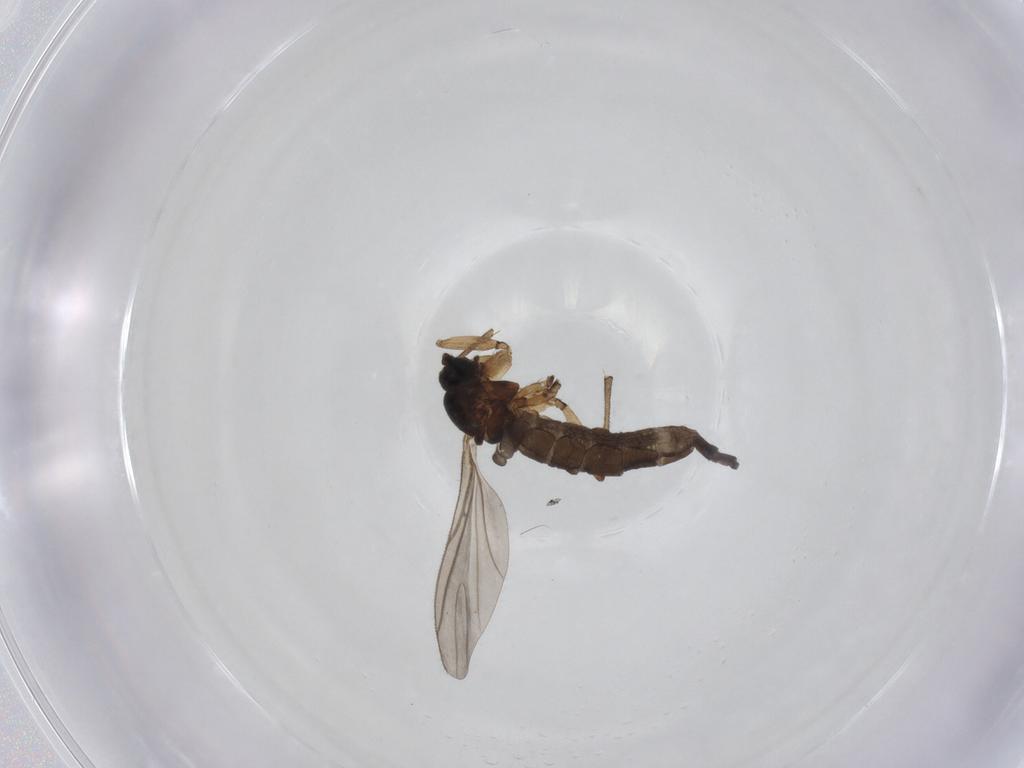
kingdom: Animalia
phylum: Arthropoda
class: Insecta
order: Diptera
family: Sciaridae
